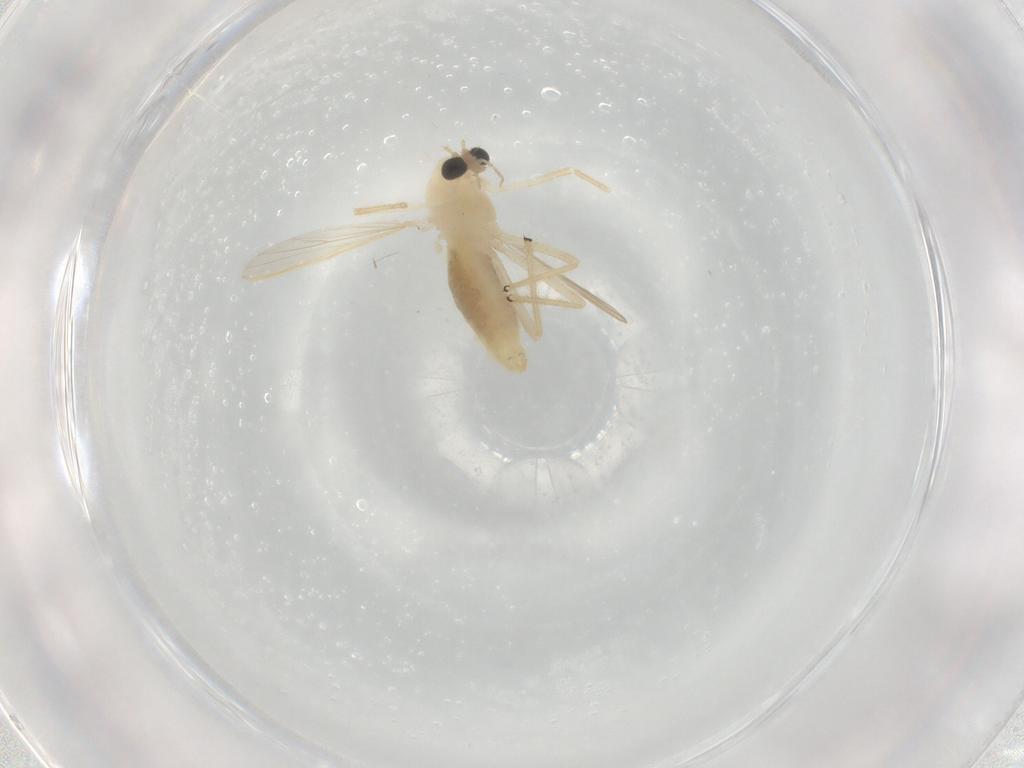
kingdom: Animalia
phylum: Arthropoda
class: Insecta
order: Diptera
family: Chironomidae
